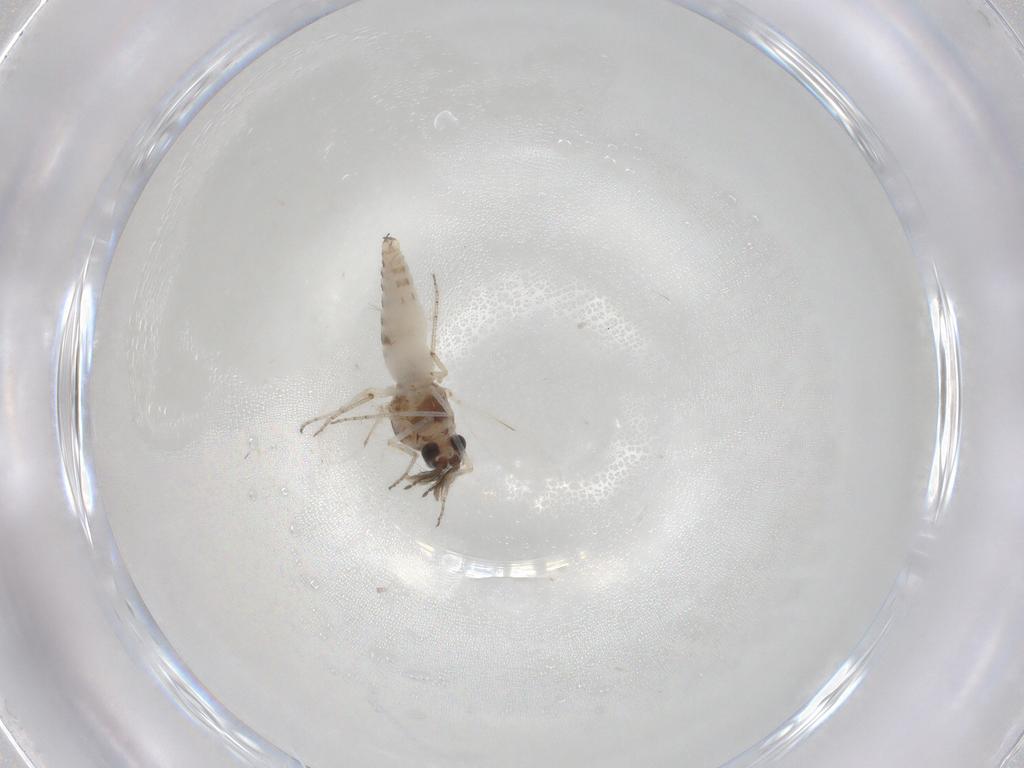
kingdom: Animalia
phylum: Arthropoda
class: Insecta
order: Diptera
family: Ceratopogonidae
